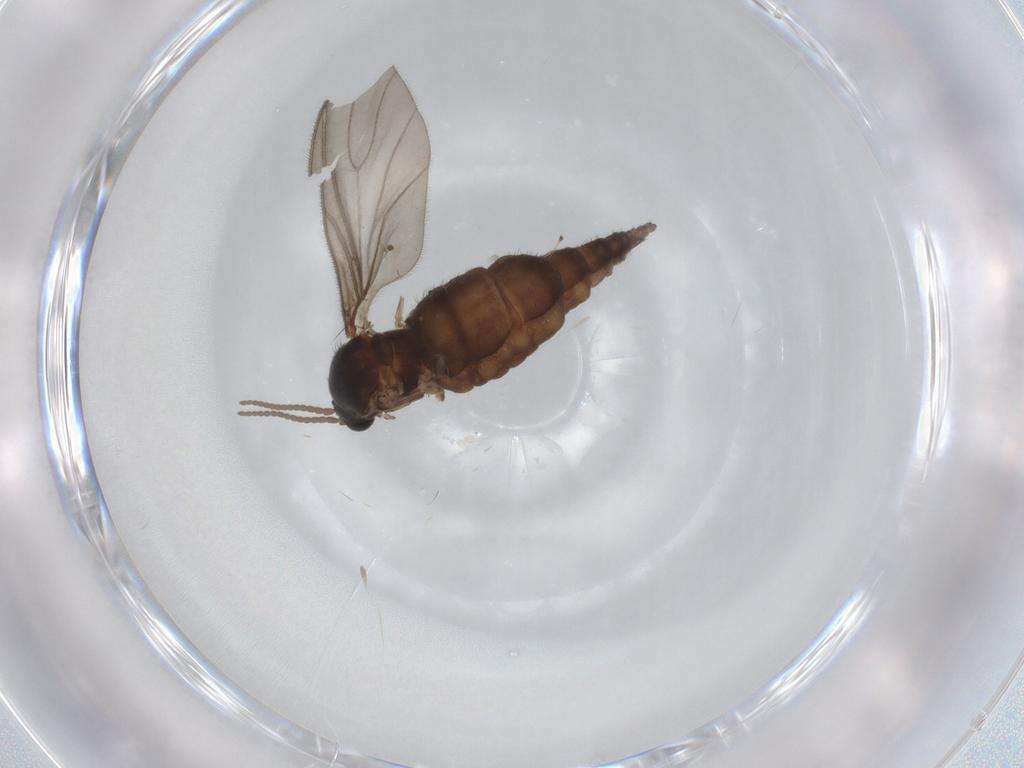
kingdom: Animalia
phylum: Arthropoda
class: Insecta
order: Diptera
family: Sciaridae
